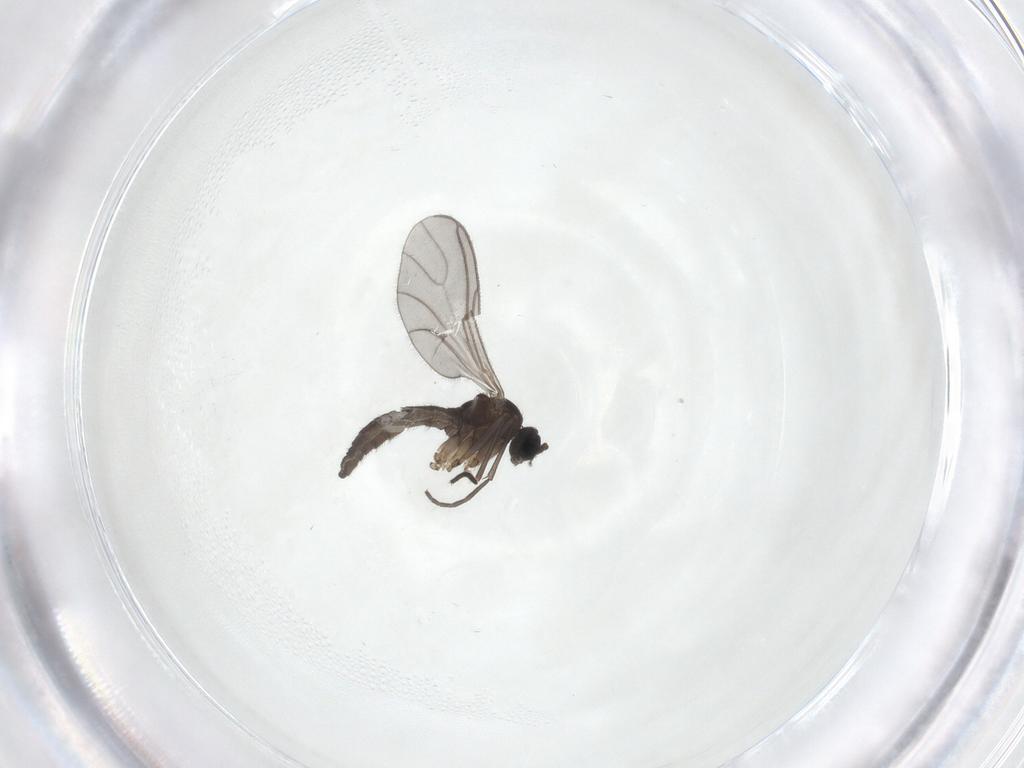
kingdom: Animalia
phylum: Arthropoda
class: Insecta
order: Diptera
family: Sciaridae
